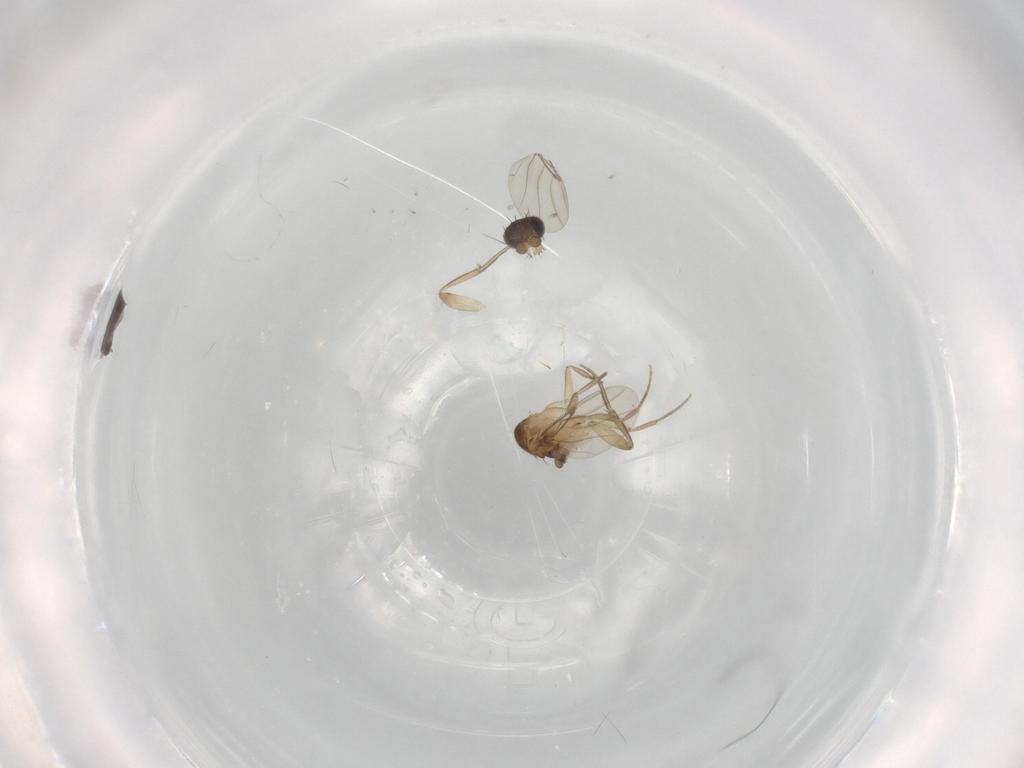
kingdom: Animalia
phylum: Arthropoda
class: Insecta
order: Diptera
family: Phoridae
